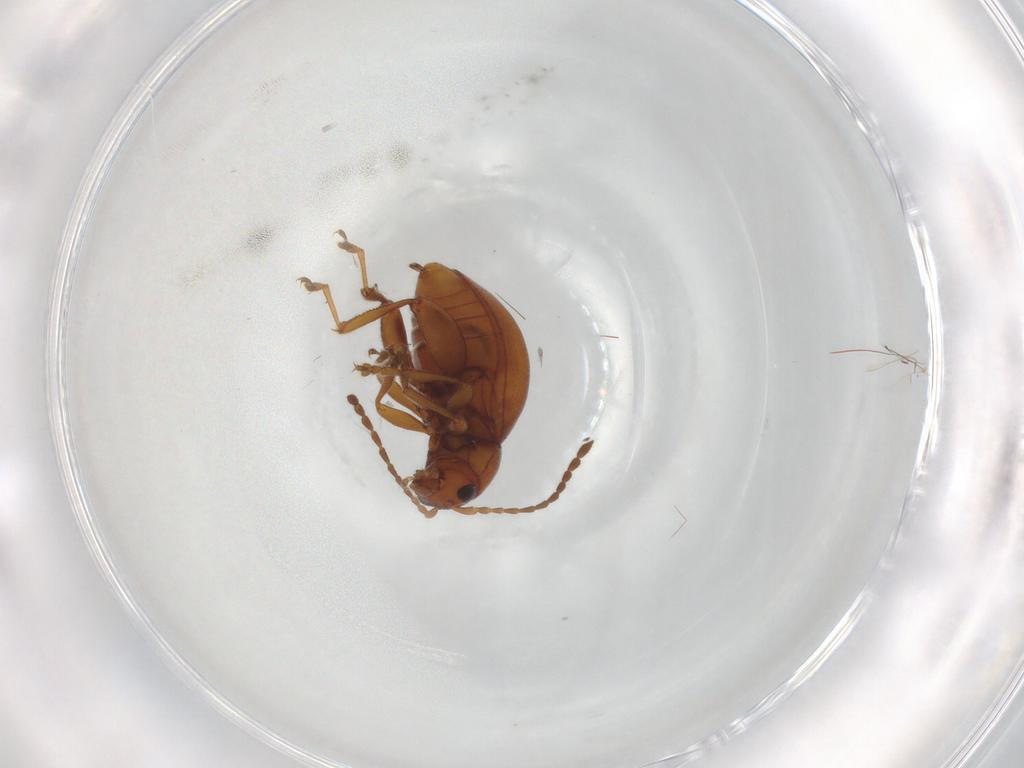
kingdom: Animalia
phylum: Arthropoda
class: Insecta
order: Coleoptera
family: Chrysomelidae
